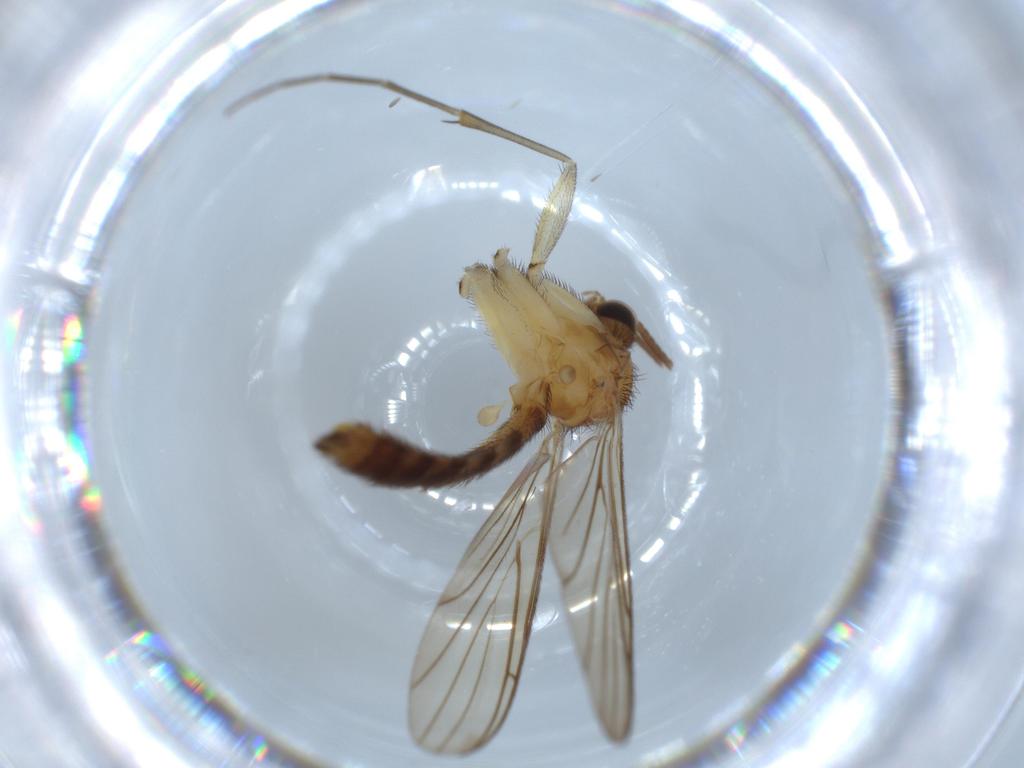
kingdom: Animalia
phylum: Arthropoda
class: Insecta
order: Diptera
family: Keroplatidae
